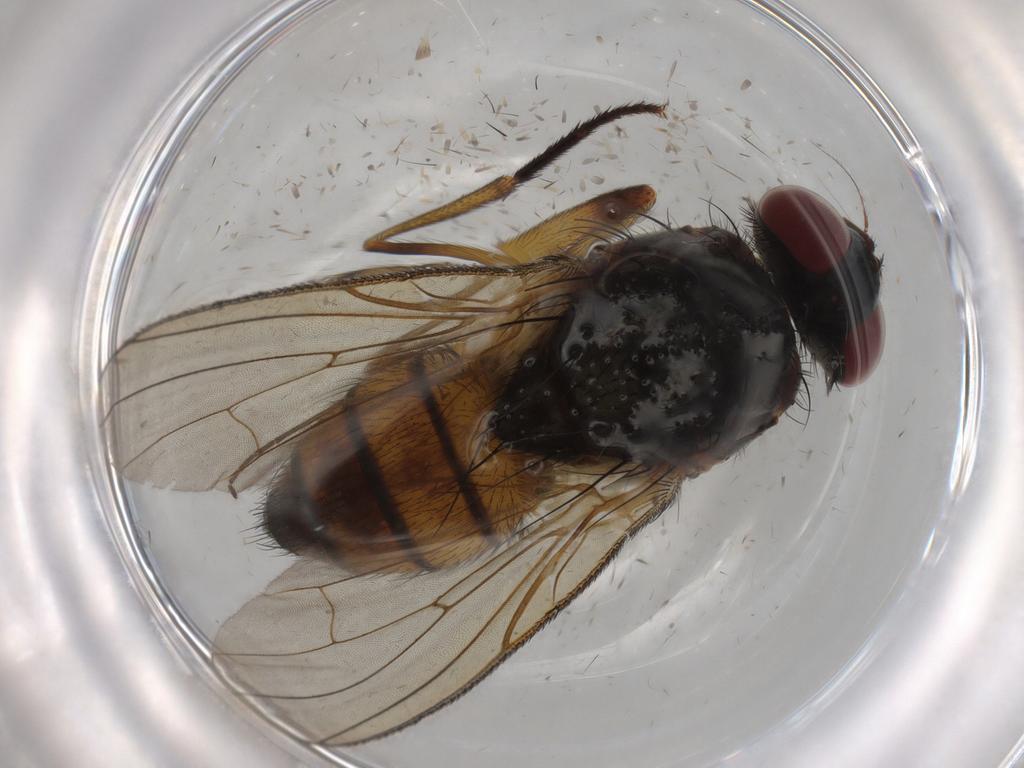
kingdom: Animalia
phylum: Arthropoda
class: Insecta
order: Diptera
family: Anthomyiidae
